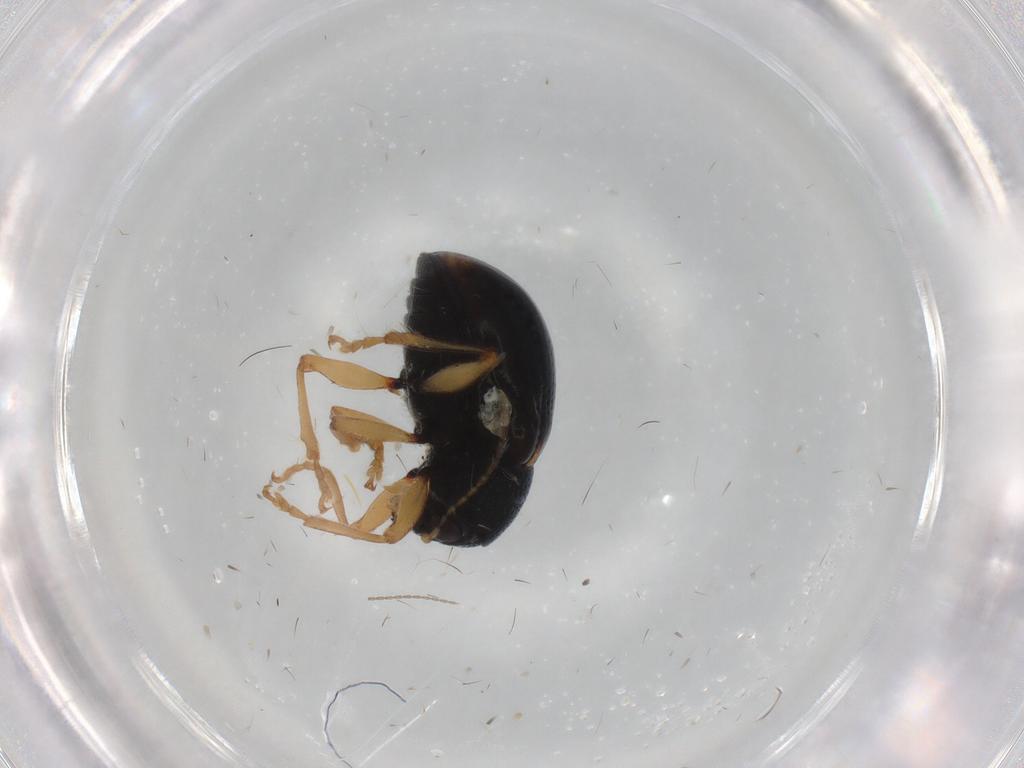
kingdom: Animalia
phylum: Arthropoda
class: Insecta
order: Coleoptera
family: Chrysomelidae
